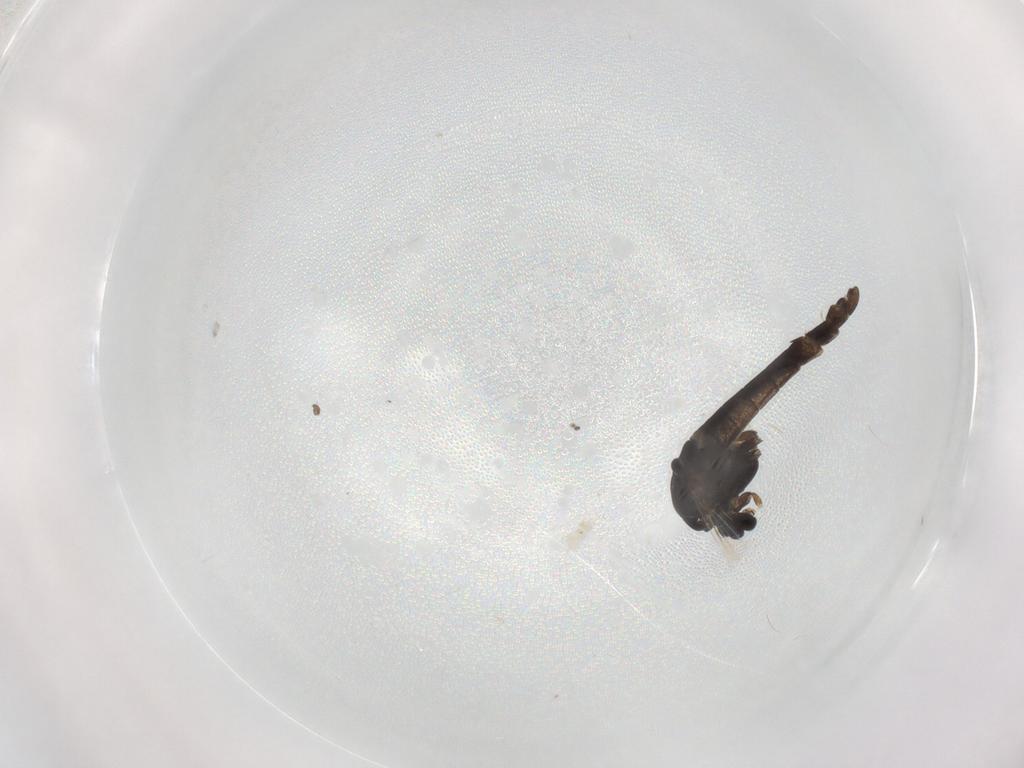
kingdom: Animalia
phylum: Arthropoda
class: Insecta
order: Diptera
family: Chironomidae
